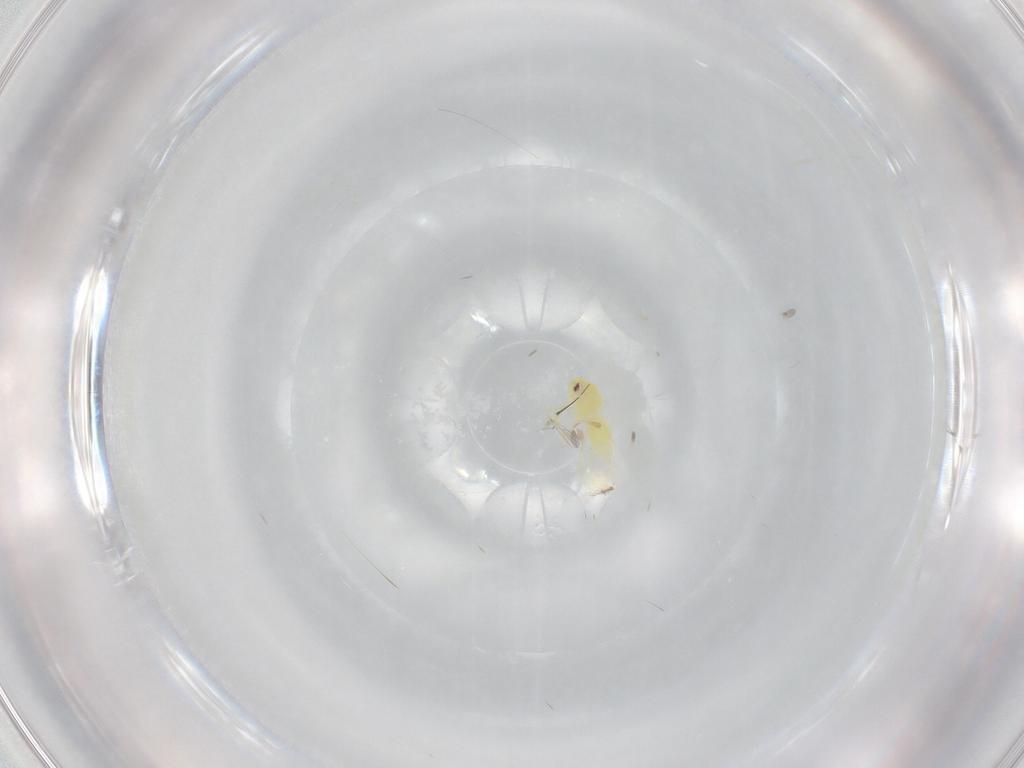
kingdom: Animalia
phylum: Arthropoda
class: Insecta
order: Hemiptera
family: Aleyrodidae
